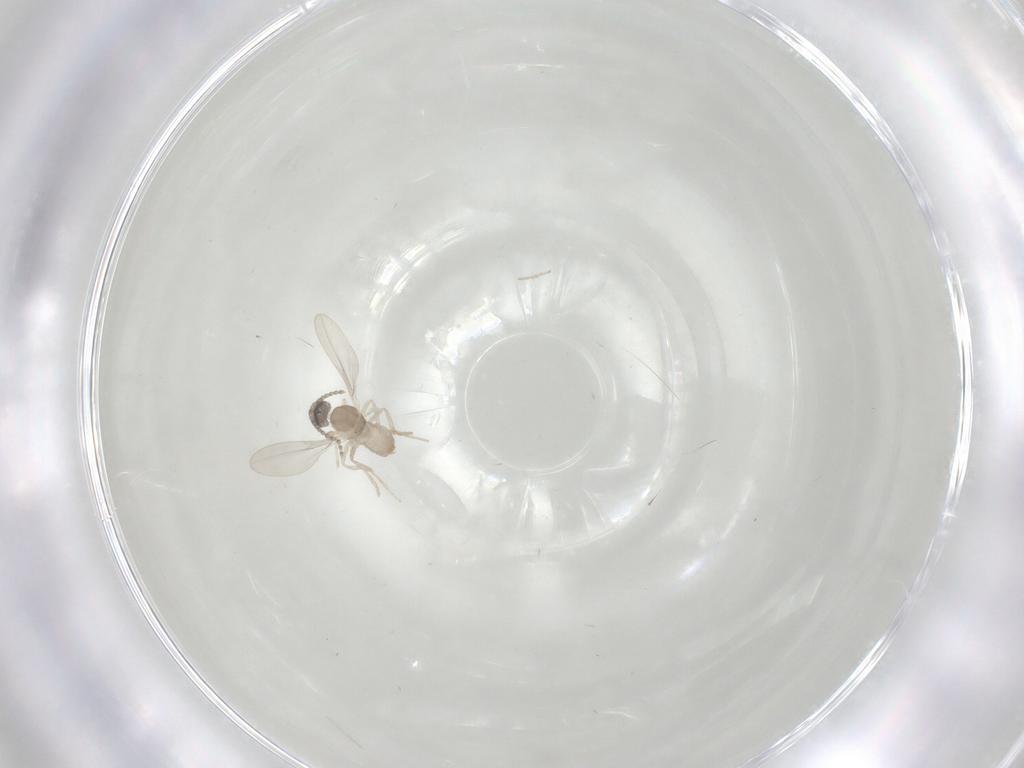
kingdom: Animalia
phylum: Arthropoda
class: Insecta
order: Diptera
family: Cecidomyiidae
